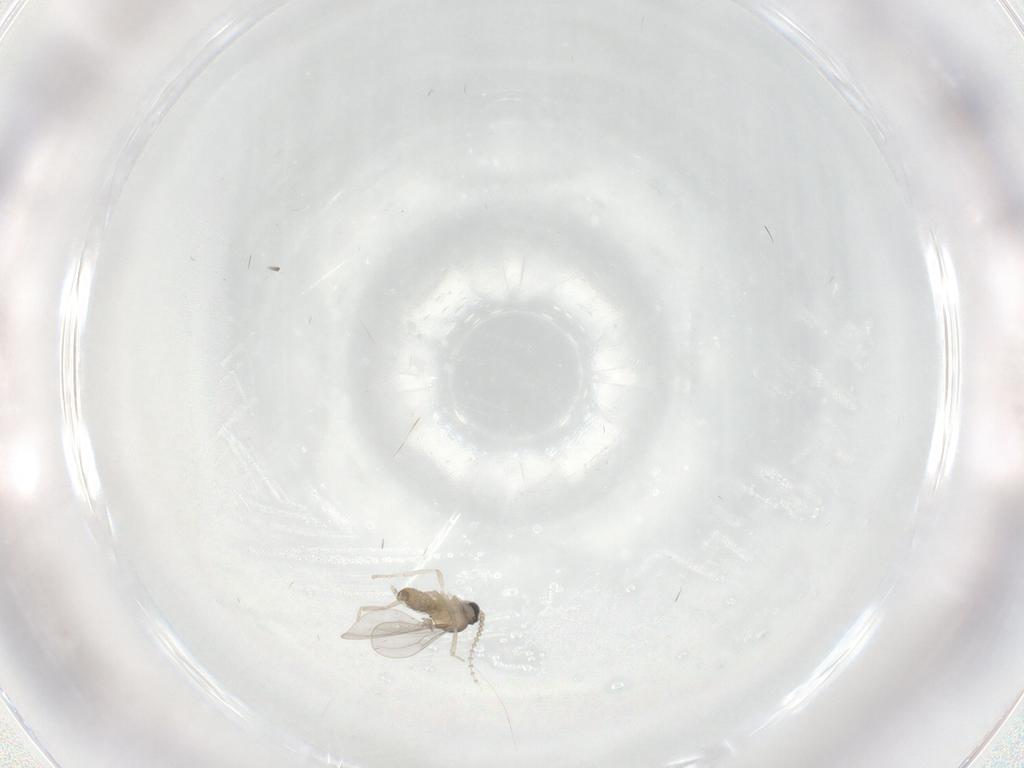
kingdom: Animalia
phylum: Arthropoda
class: Insecta
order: Diptera
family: Cecidomyiidae
